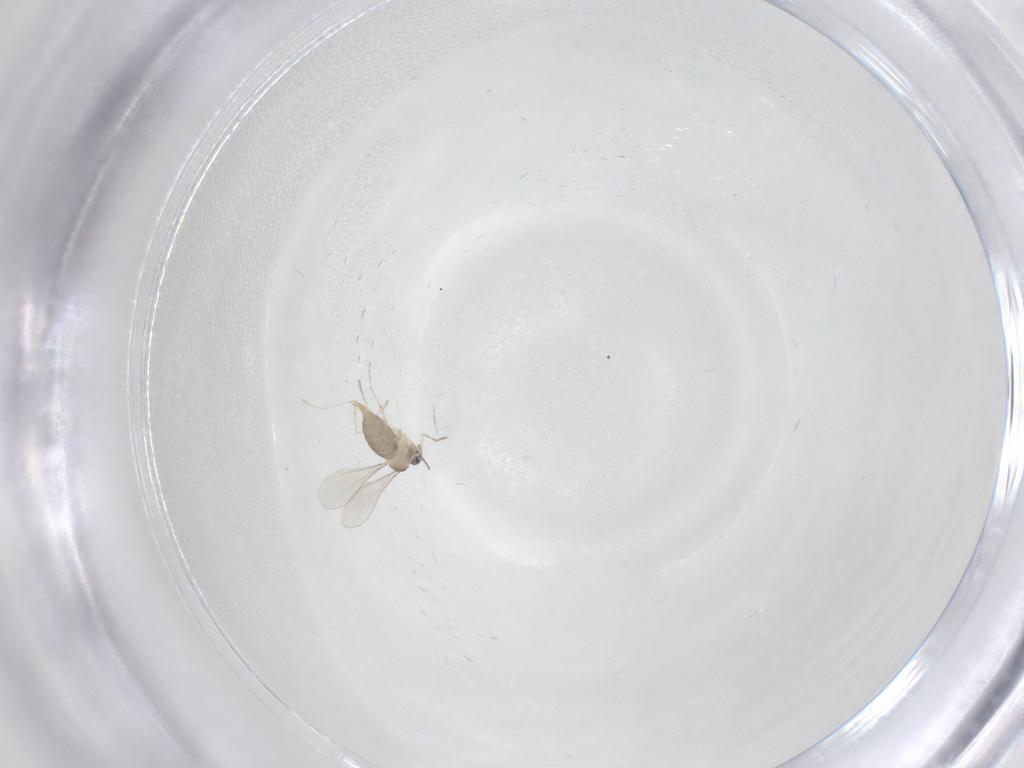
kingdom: Animalia
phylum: Arthropoda
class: Insecta
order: Diptera
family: Cecidomyiidae
